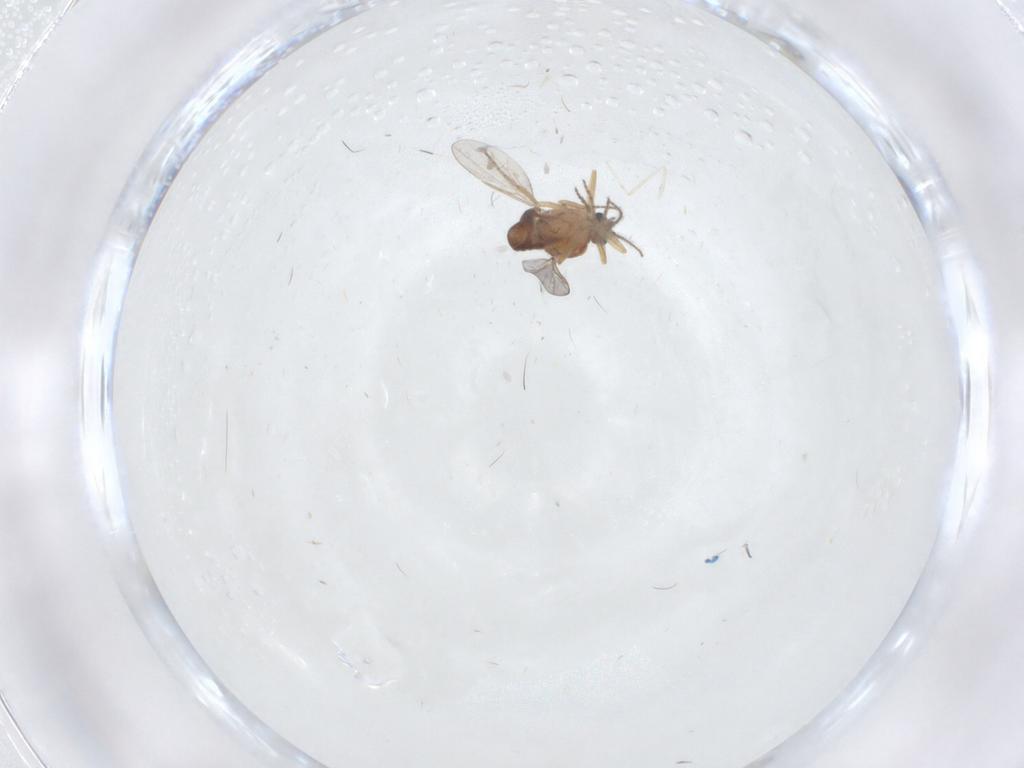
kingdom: Animalia
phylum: Arthropoda
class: Insecta
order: Diptera
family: Ceratopogonidae
